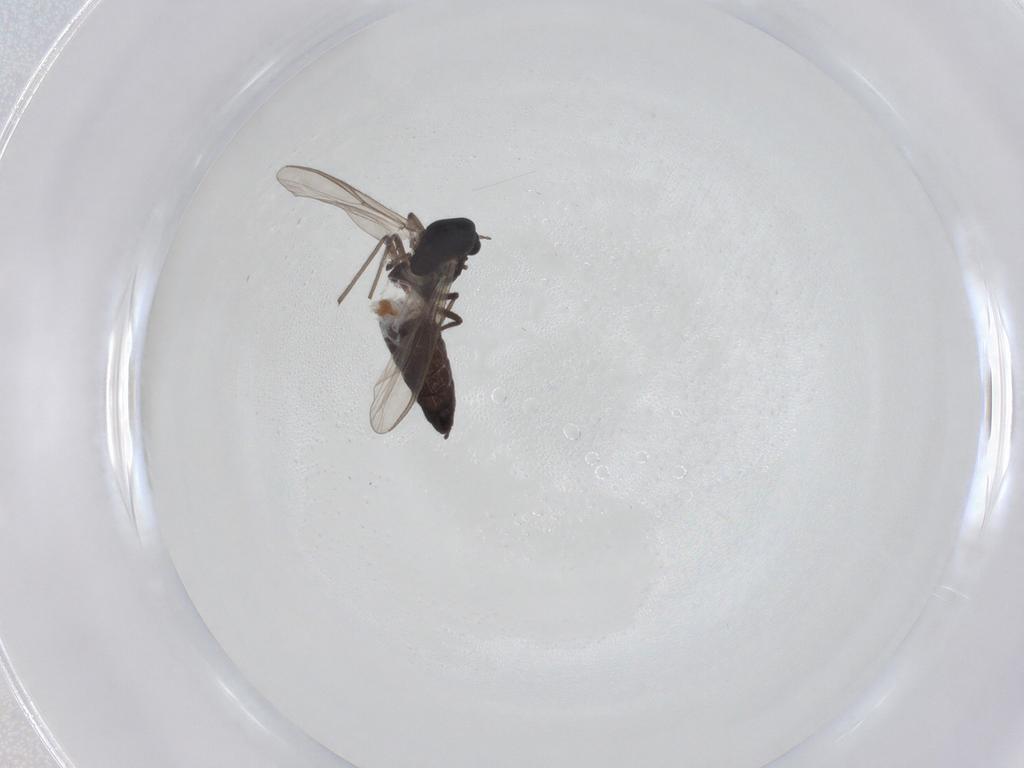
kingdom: Animalia
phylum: Arthropoda
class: Insecta
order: Diptera
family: Chironomidae
